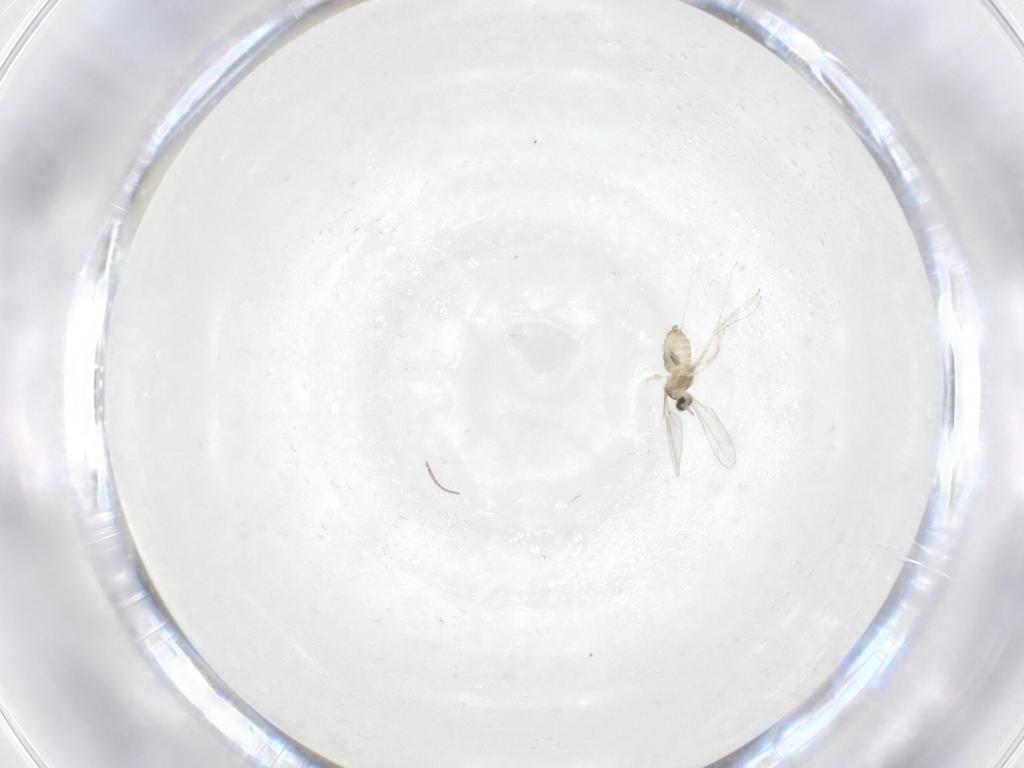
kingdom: Animalia
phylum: Arthropoda
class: Insecta
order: Diptera
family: Cecidomyiidae
